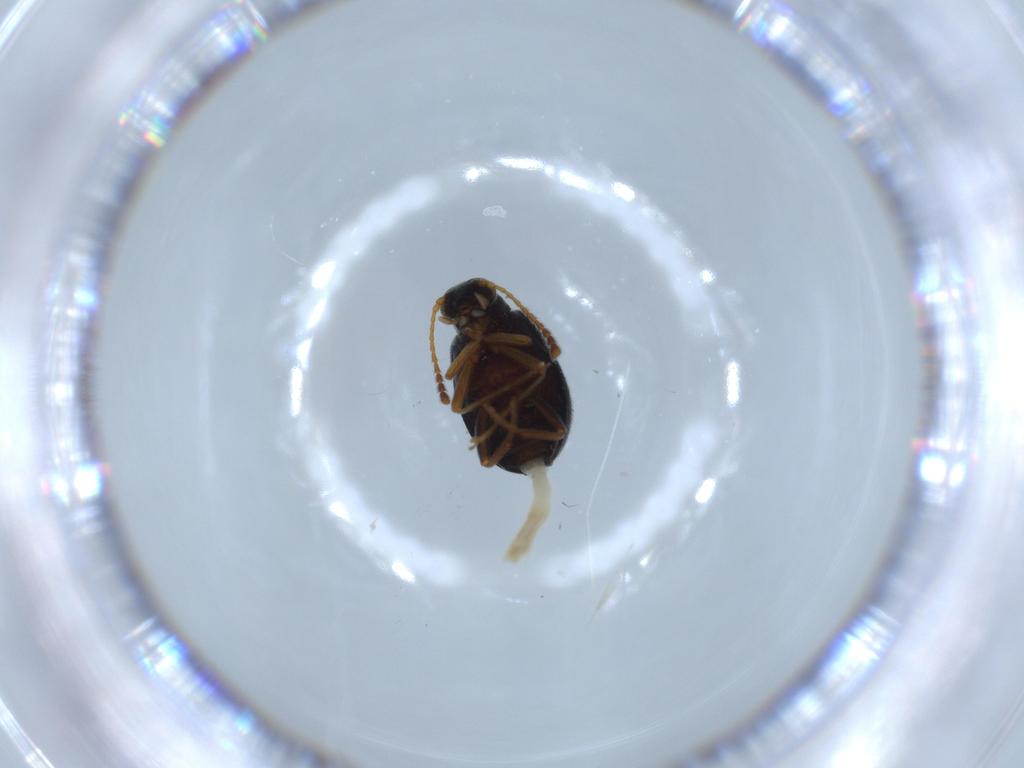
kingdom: Animalia
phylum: Arthropoda
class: Insecta
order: Coleoptera
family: Aderidae
